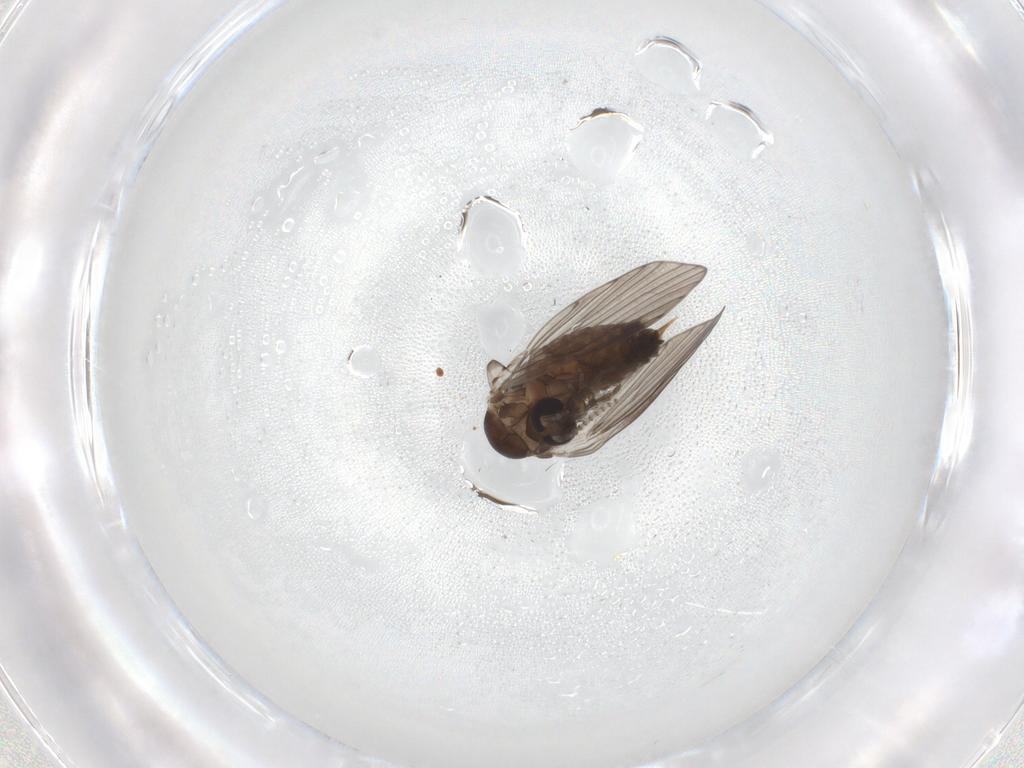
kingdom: Animalia
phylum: Arthropoda
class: Insecta
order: Diptera
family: Psychodidae
